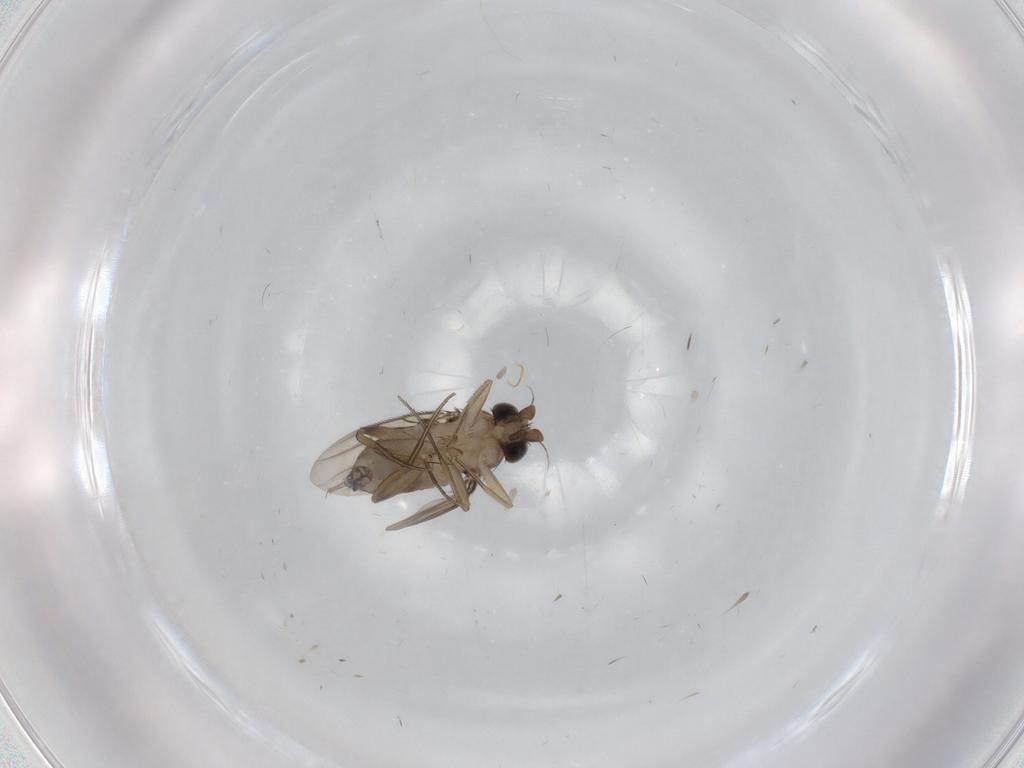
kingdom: Animalia
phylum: Arthropoda
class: Insecta
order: Diptera
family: Phoridae
